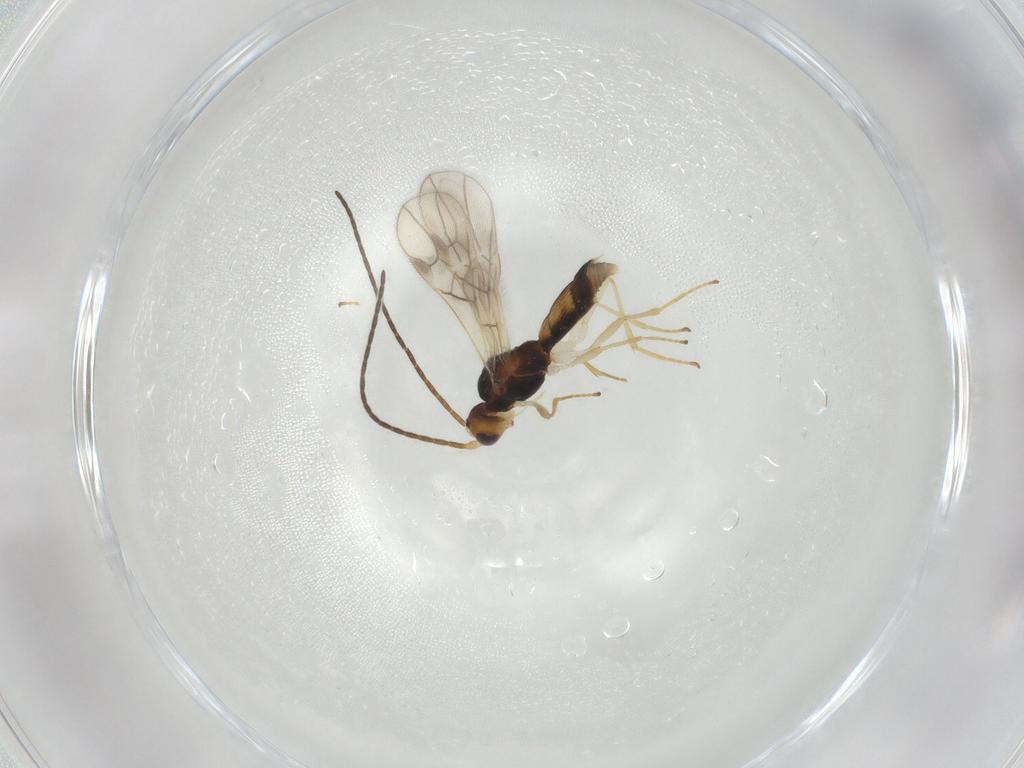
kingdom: Animalia
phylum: Arthropoda
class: Insecta
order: Hymenoptera
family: Braconidae
